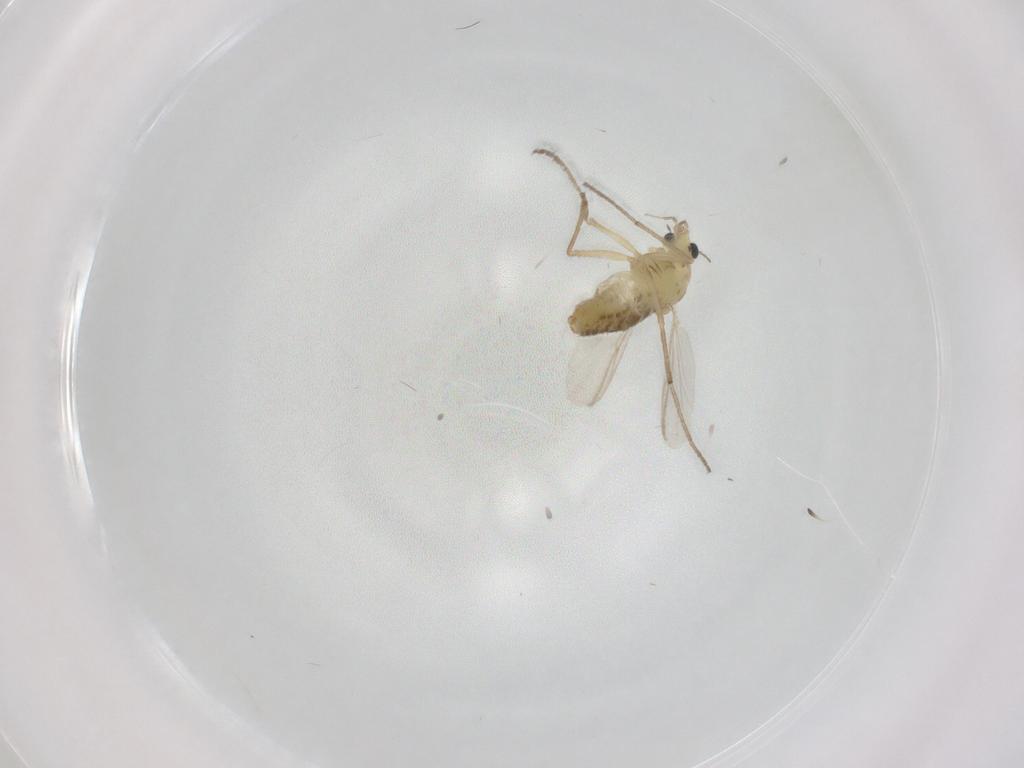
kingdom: Animalia
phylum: Arthropoda
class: Insecta
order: Diptera
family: Chironomidae
